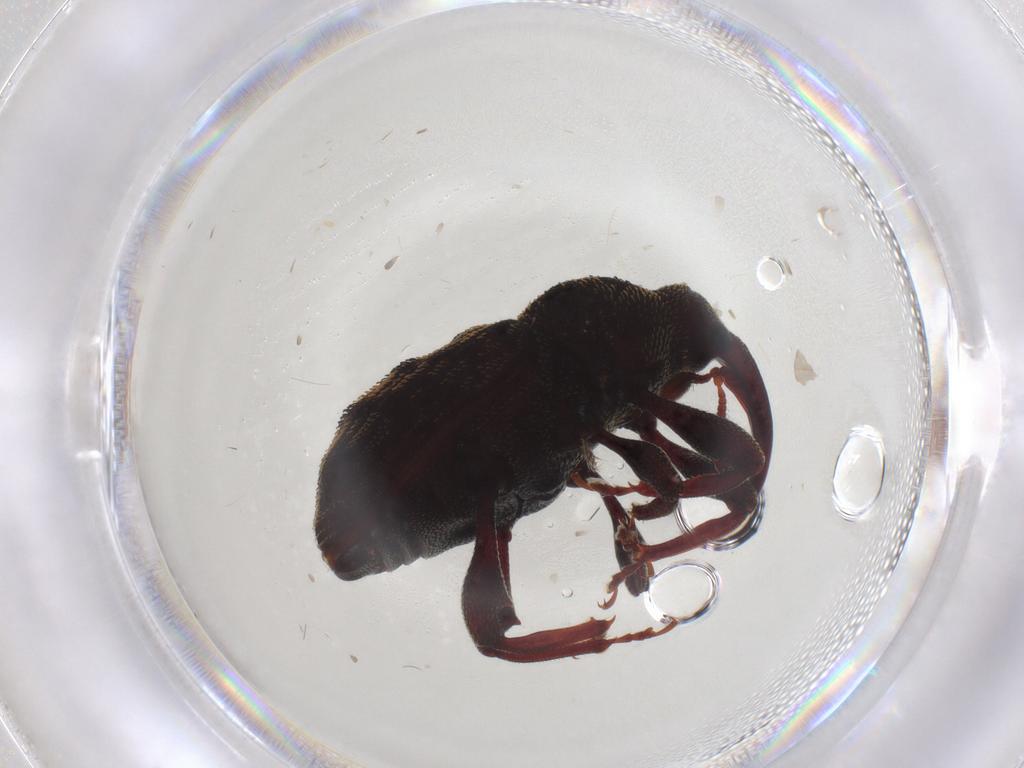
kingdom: Animalia
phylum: Arthropoda
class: Insecta
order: Coleoptera
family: Scirtidae
